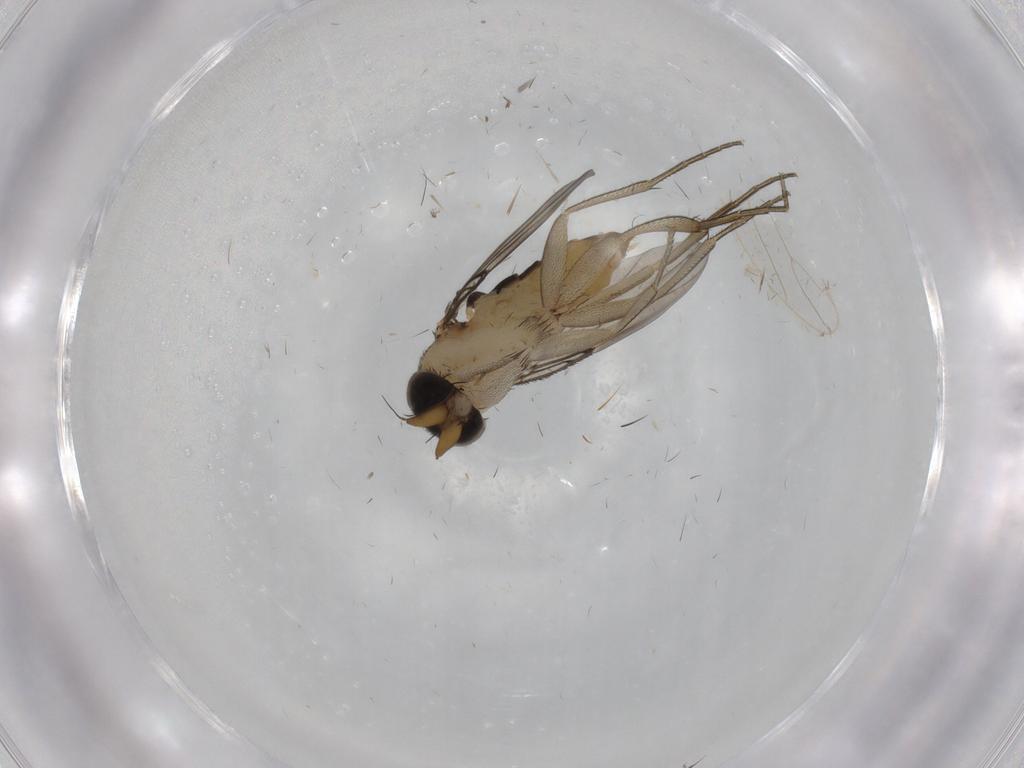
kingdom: Animalia
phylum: Arthropoda
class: Insecta
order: Diptera
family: Phoridae
